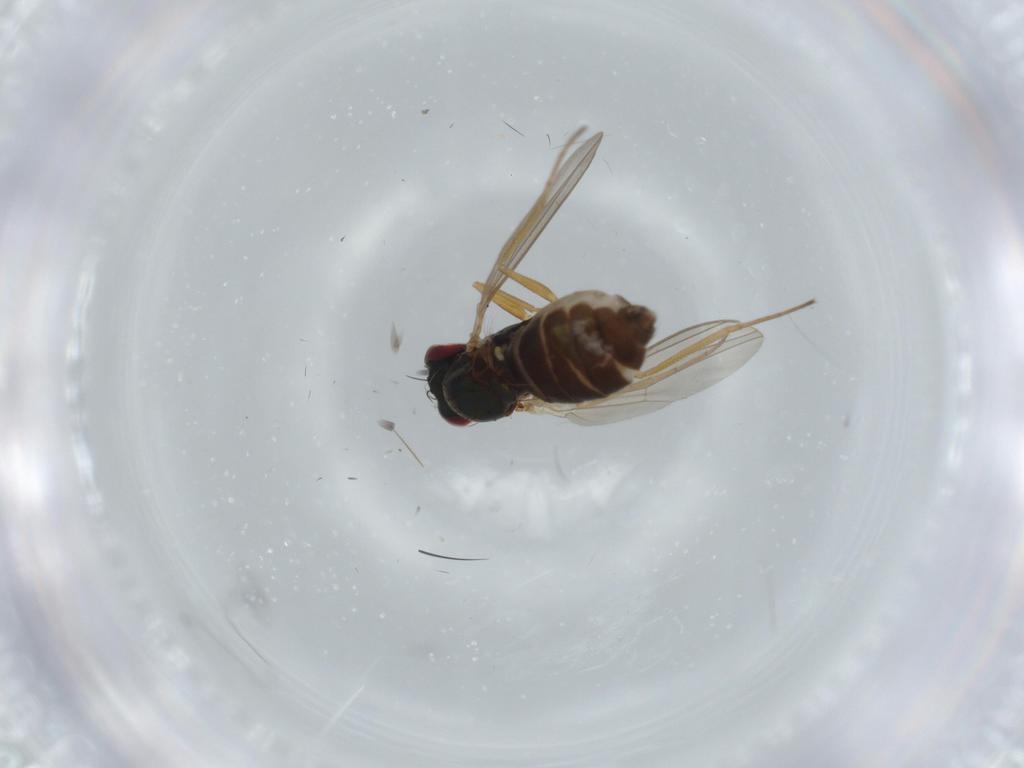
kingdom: Animalia
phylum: Arthropoda
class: Insecta
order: Diptera
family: Dolichopodidae
